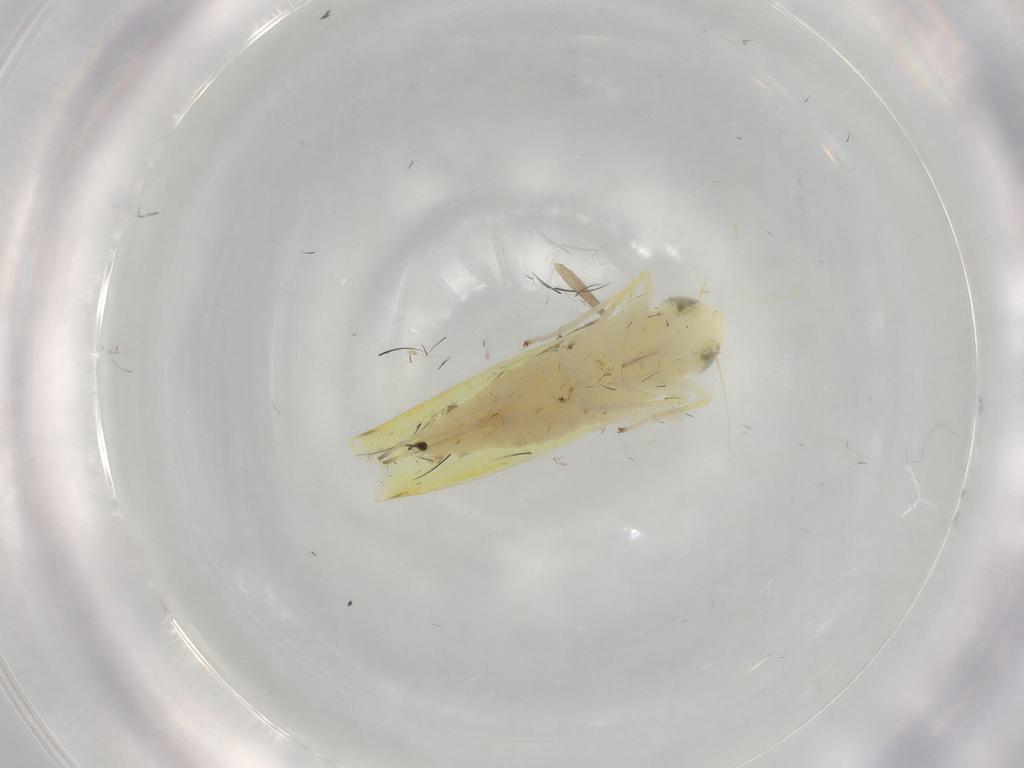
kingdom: Animalia
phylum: Arthropoda
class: Insecta
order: Hemiptera
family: Cicadellidae
